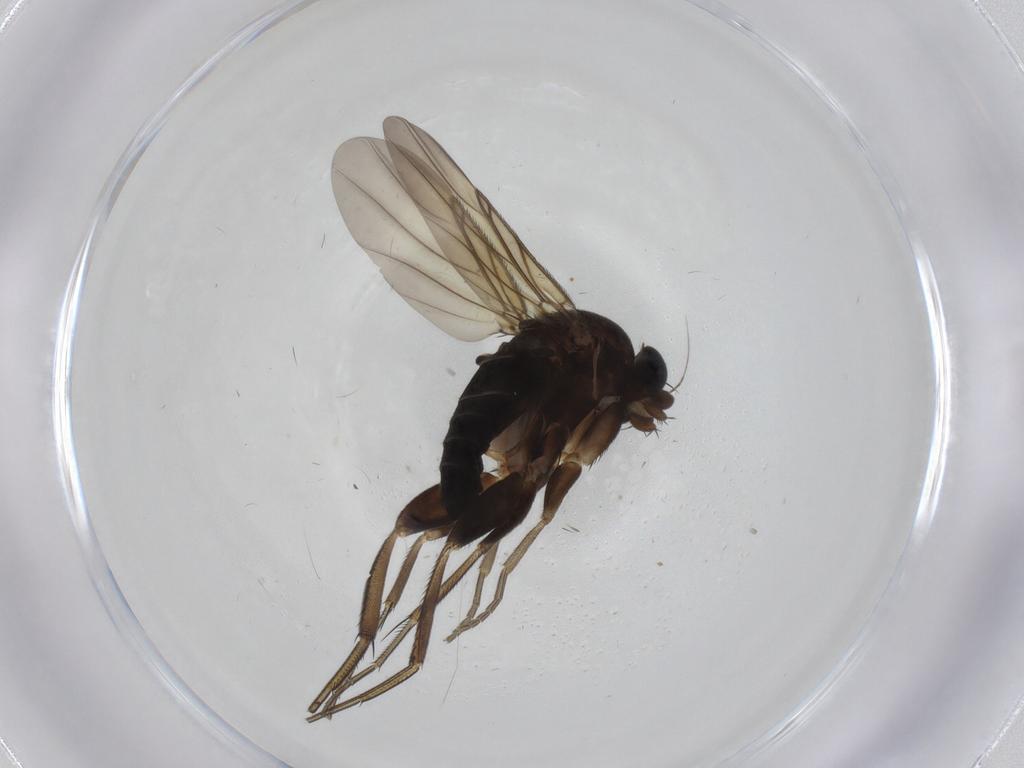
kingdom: Animalia
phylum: Arthropoda
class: Insecta
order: Diptera
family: Phoridae
